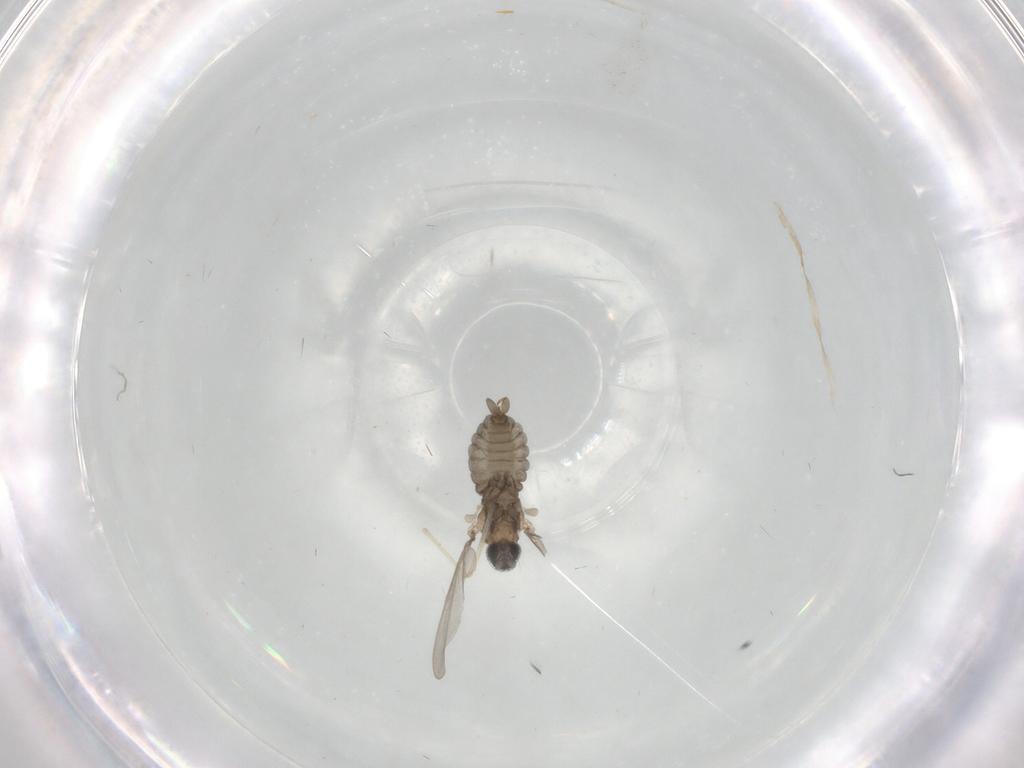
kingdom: Animalia
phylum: Arthropoda
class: Insecta
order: Diptera
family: Cecidomyiidae
